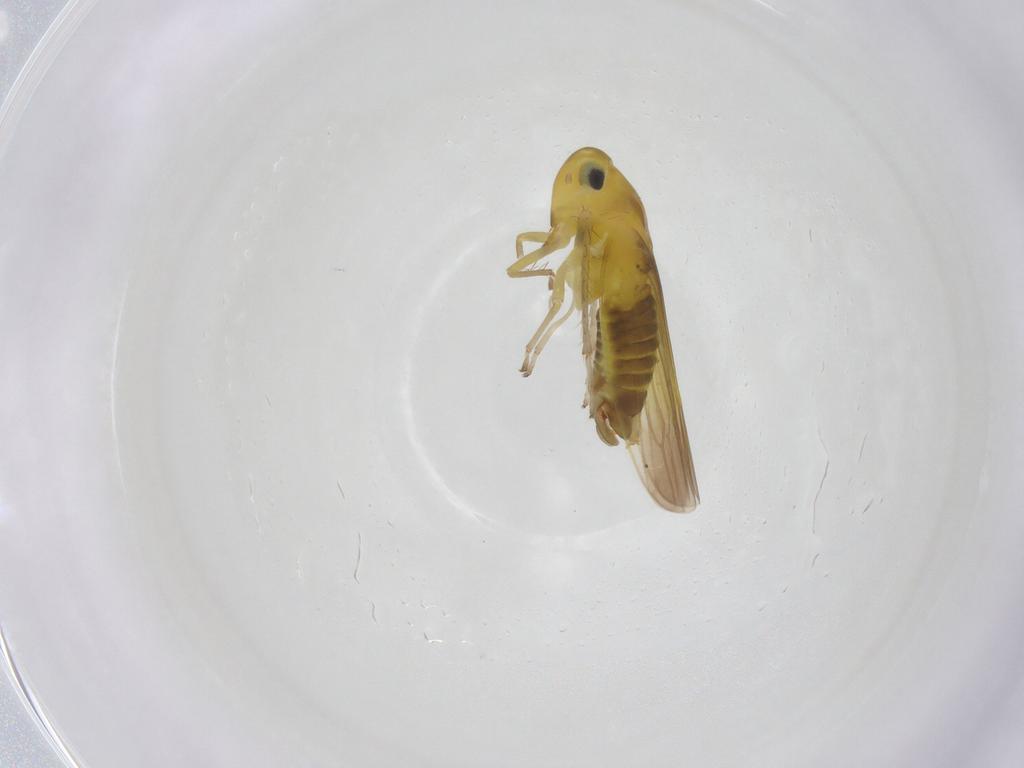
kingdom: Animalia
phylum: Arthropoda
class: Insecta
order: Hemiptera
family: Cicadellidae
